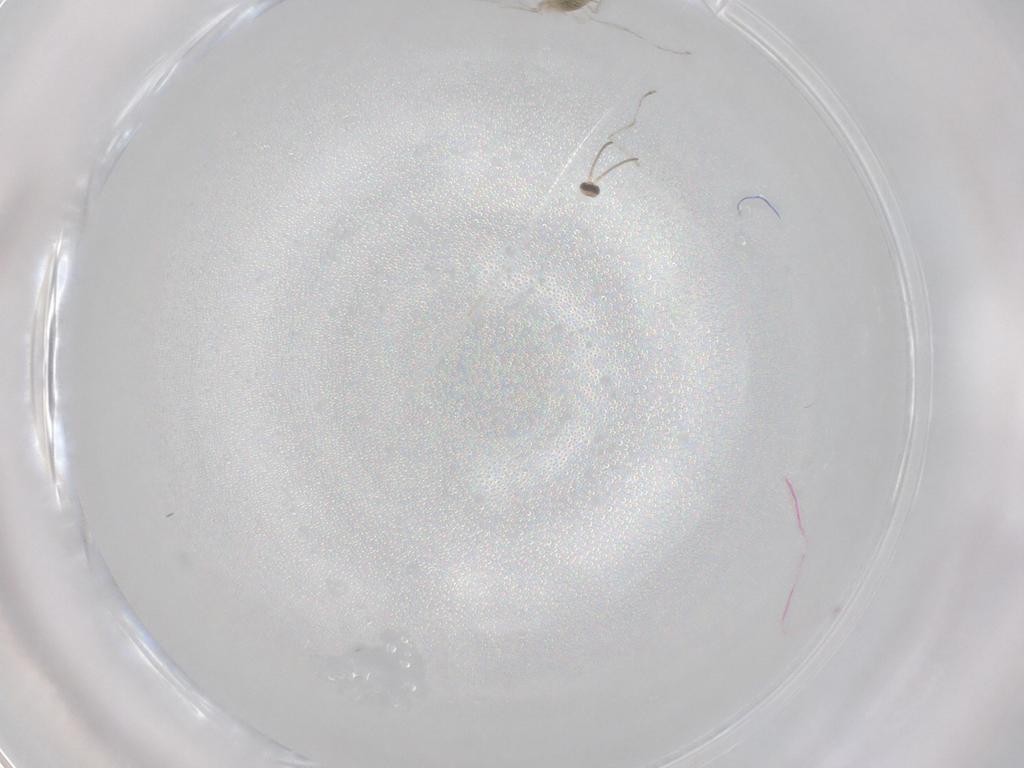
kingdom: Animalia
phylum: Arthropoda
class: Insecta
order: Diptera
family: Cecidomyiidae
